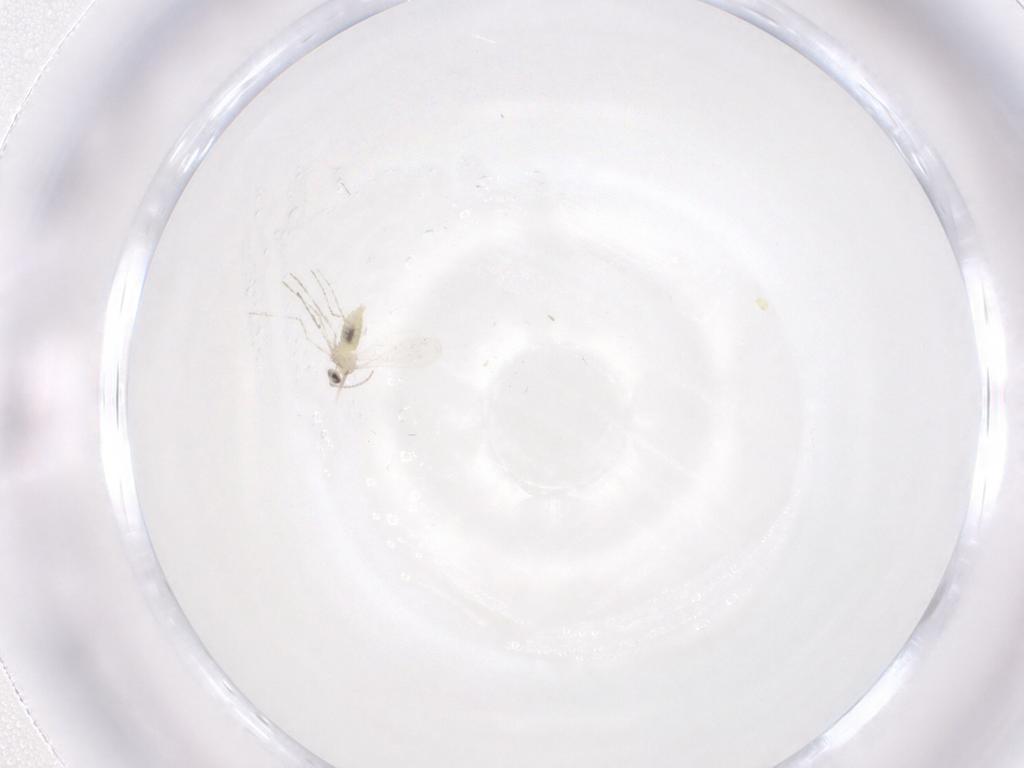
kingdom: Animalia
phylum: Arthropoda
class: Insecta
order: Diptera
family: Cecidomyiidae
